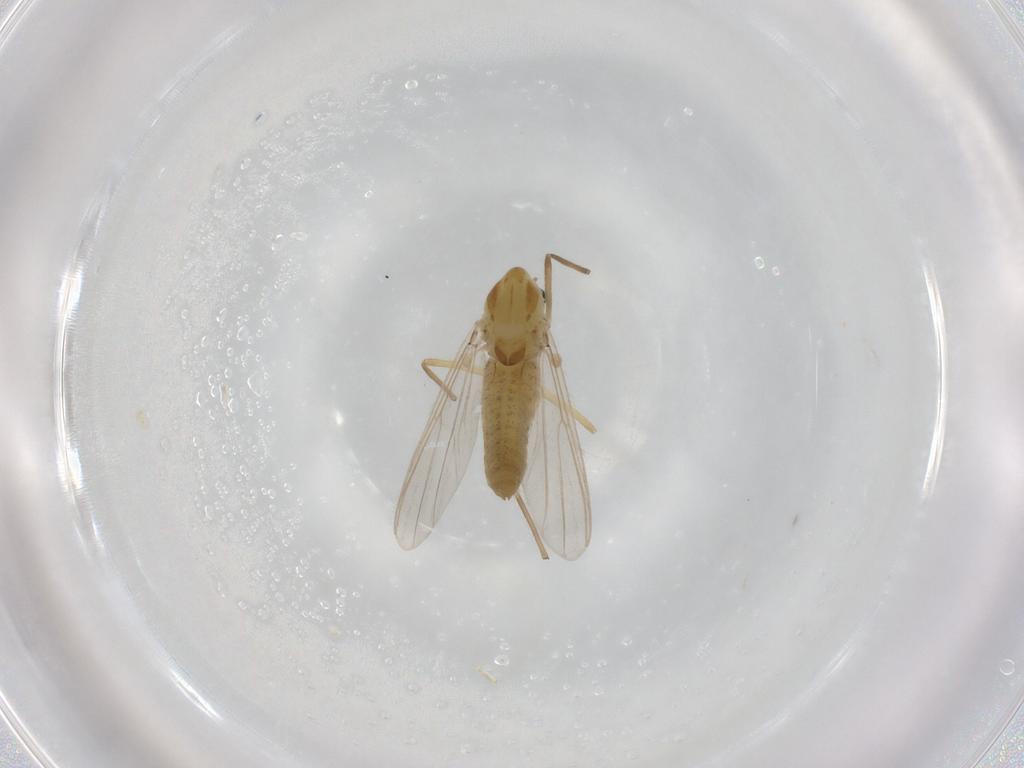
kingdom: Animalia
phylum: Arthropoda
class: Insecta
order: Diptera
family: Chironomidae
